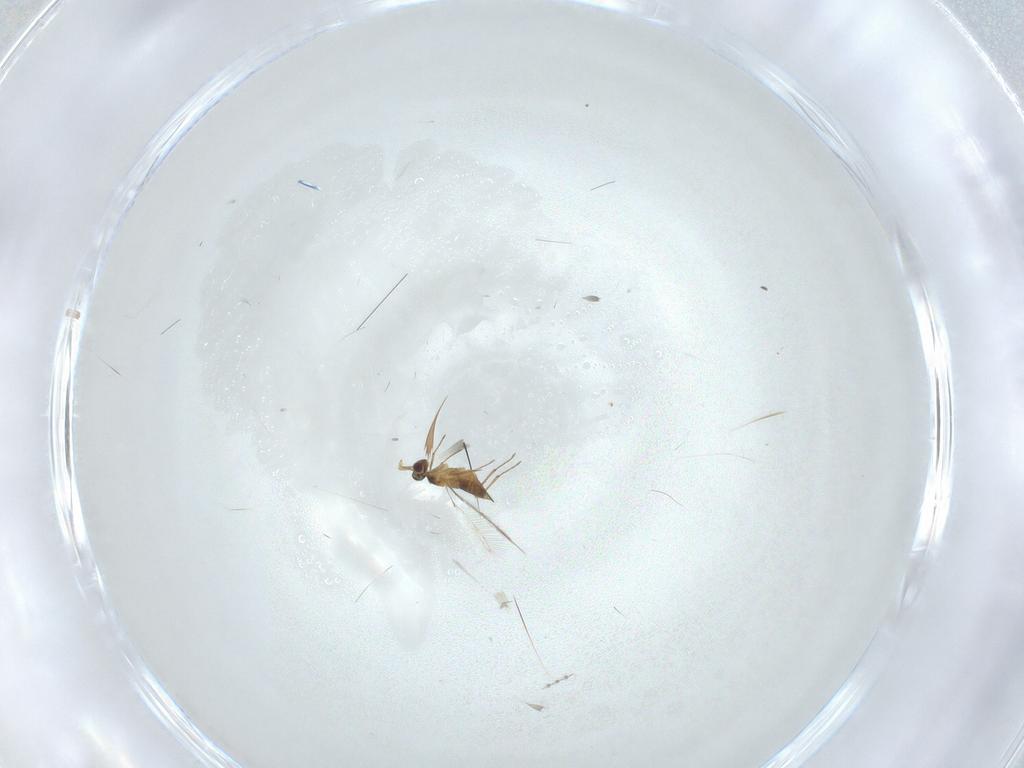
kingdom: Animalia
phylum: Arthropoda
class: Insecta
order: Hymenoptera
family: Mymaridae
